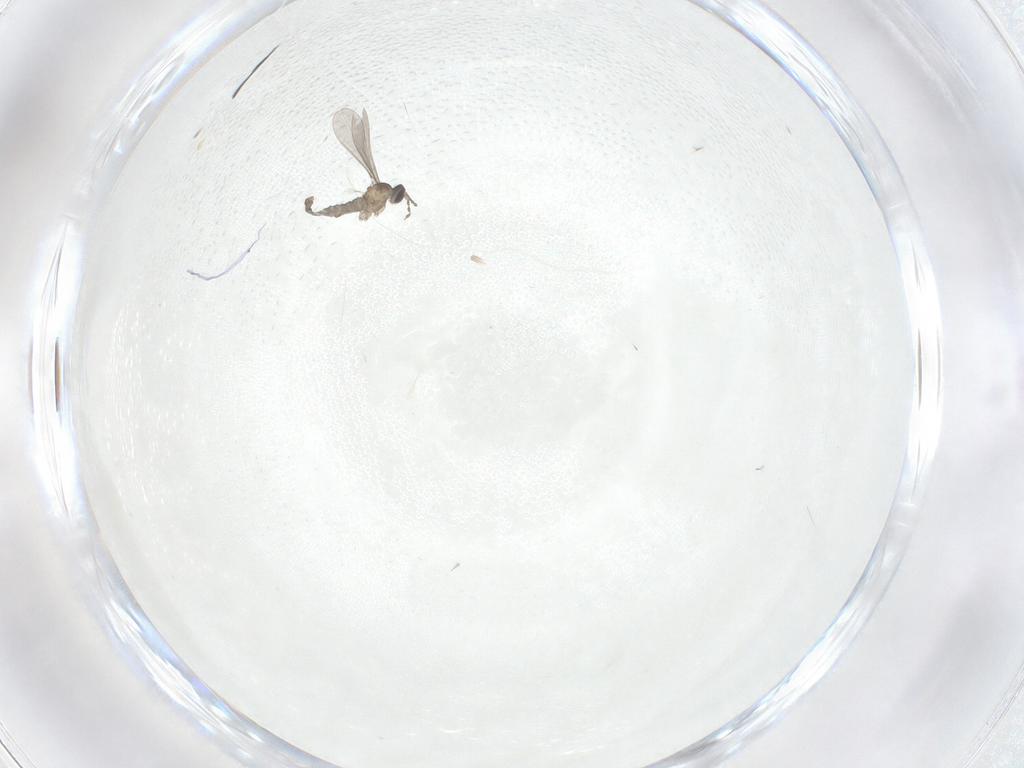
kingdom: Animalia
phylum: Arthropoda
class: Insecta
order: Diptera
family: Cecidomyiidae
